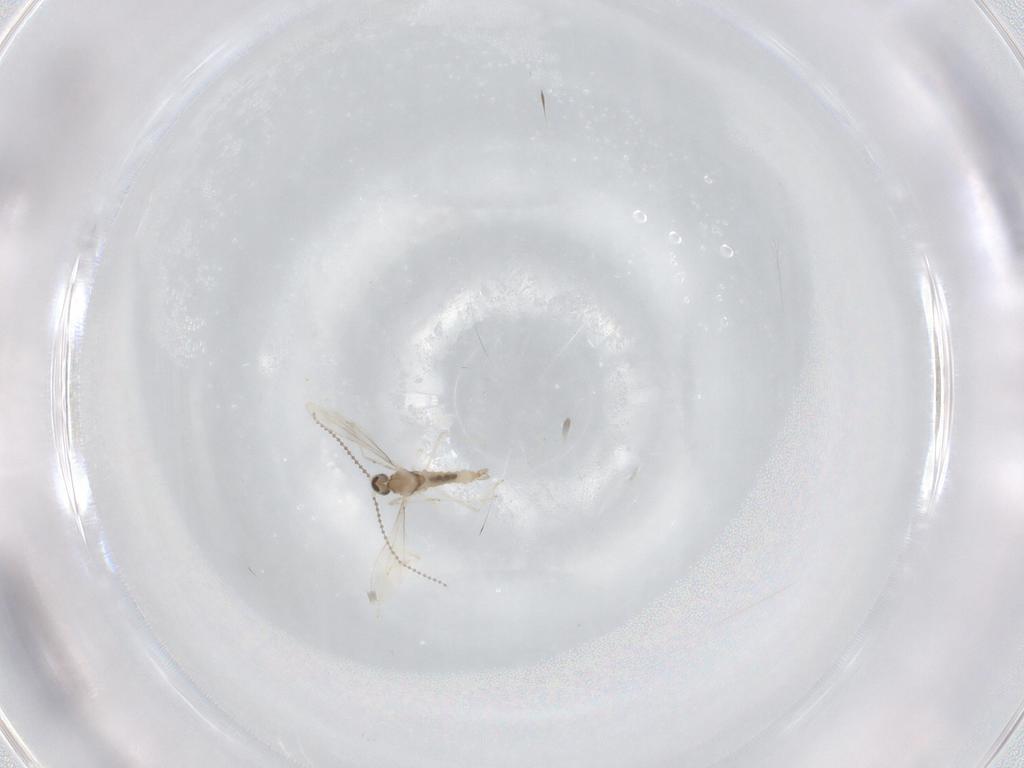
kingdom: Animalia
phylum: Arthropoda
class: Insecta
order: Diptera
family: Cecidomyiidae
